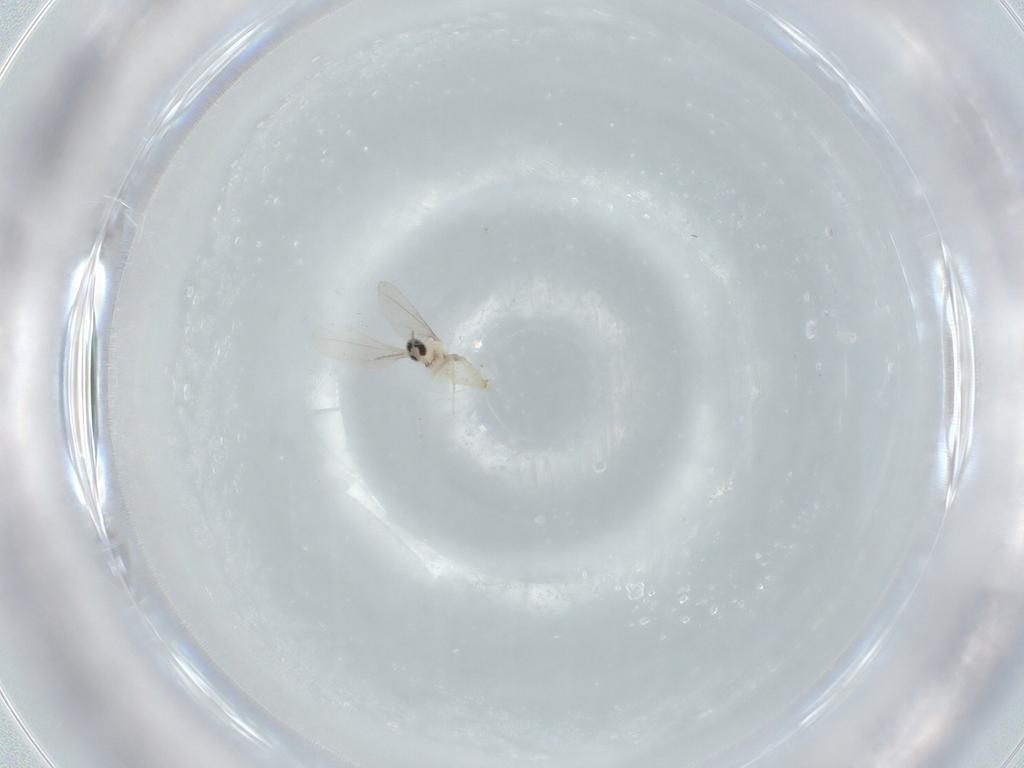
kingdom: Animalia
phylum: Arthropoda
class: Insecta
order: Diptera
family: Cecidomyiidae
